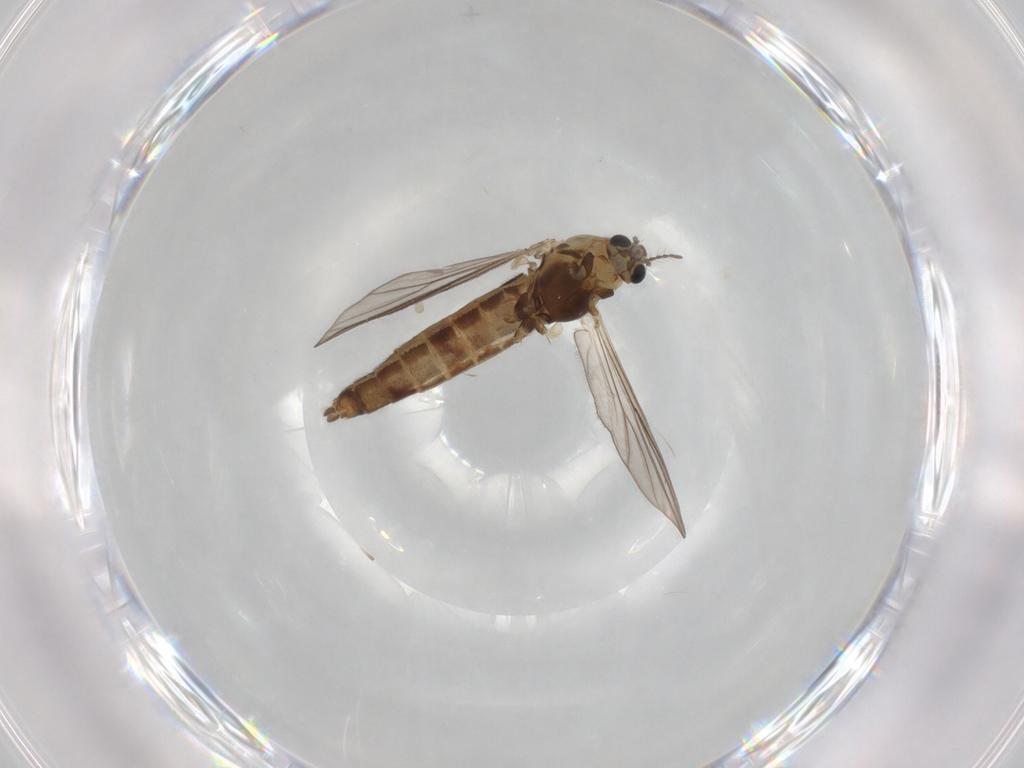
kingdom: Animalia
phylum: Arthropoda
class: Insecta
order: Diptera
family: Chironomidae
